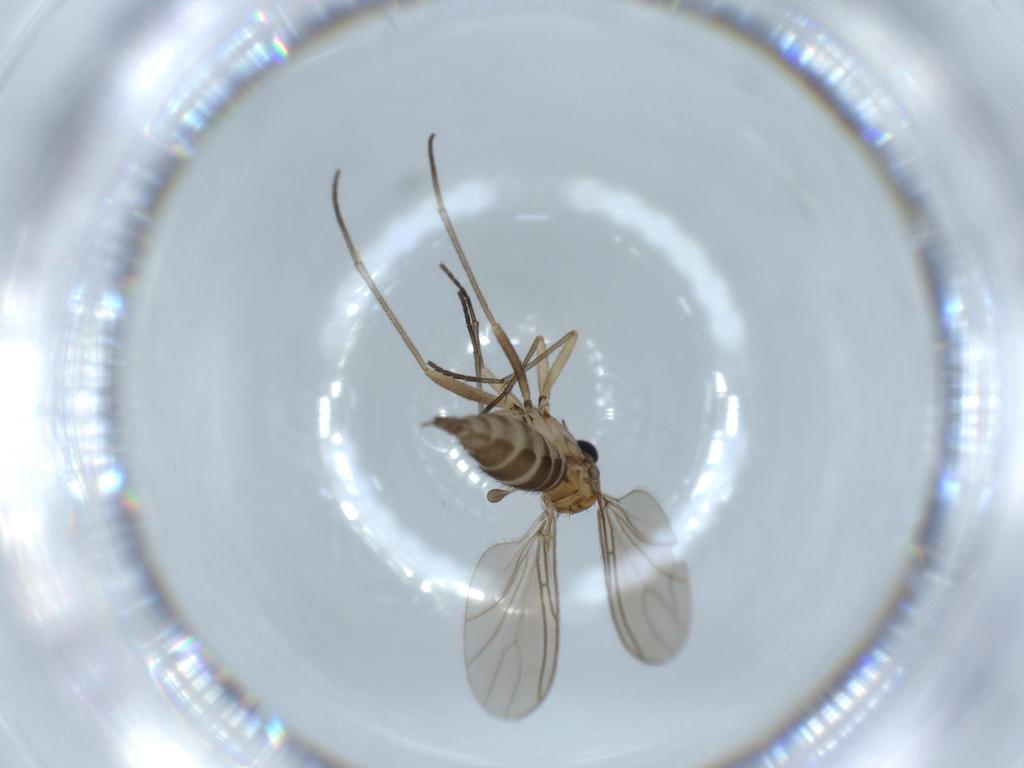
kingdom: Animalia
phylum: Arthropoda
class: Insecta
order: Diptera
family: Sciaridae
